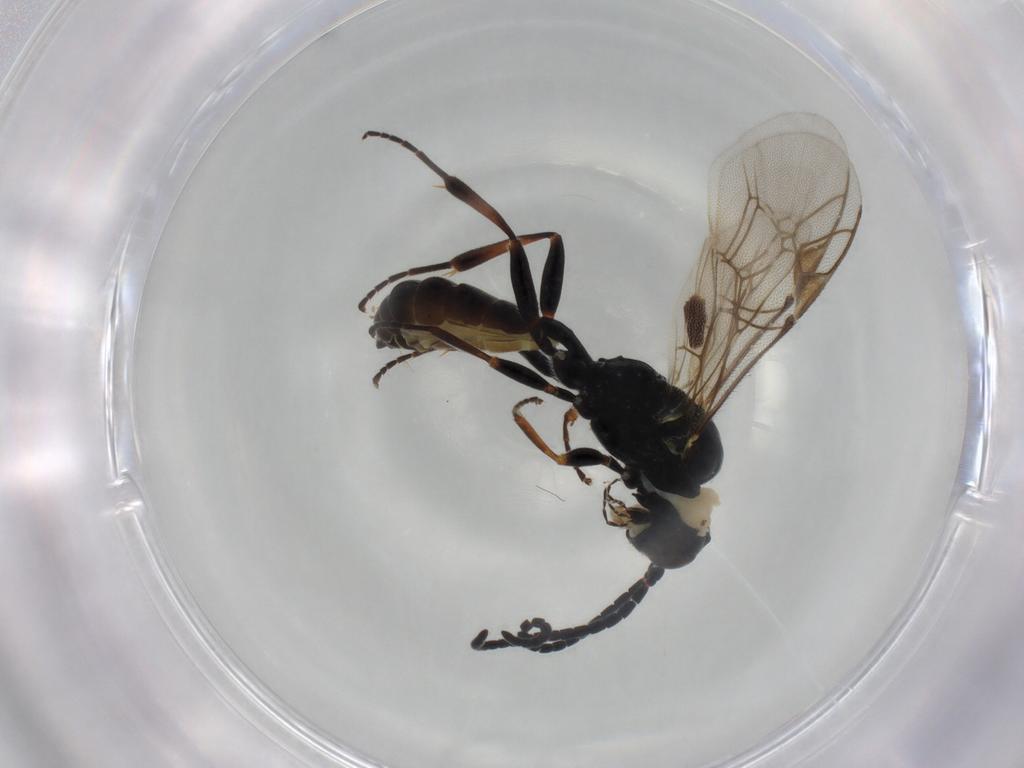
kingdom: Animalia
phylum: Arthropoda
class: Insecta
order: Hymenoptera
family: Ichneumonidae
